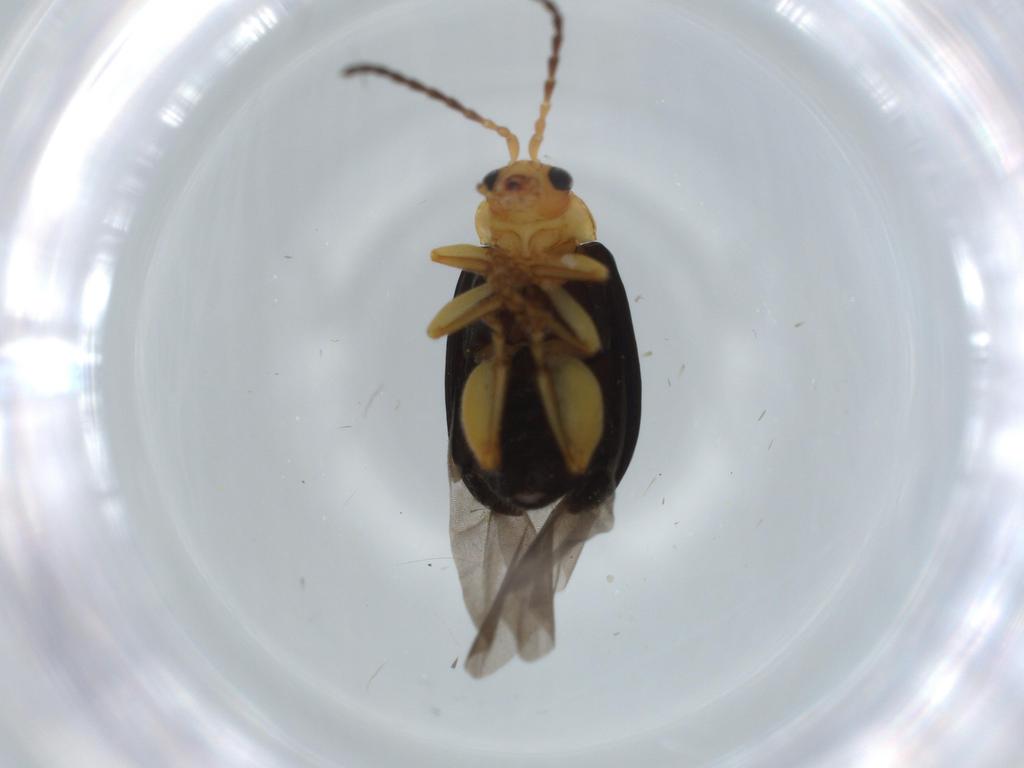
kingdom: Animalia
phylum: Arthropoda
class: Insecta
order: Coleoptera
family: Chrysomelidae
